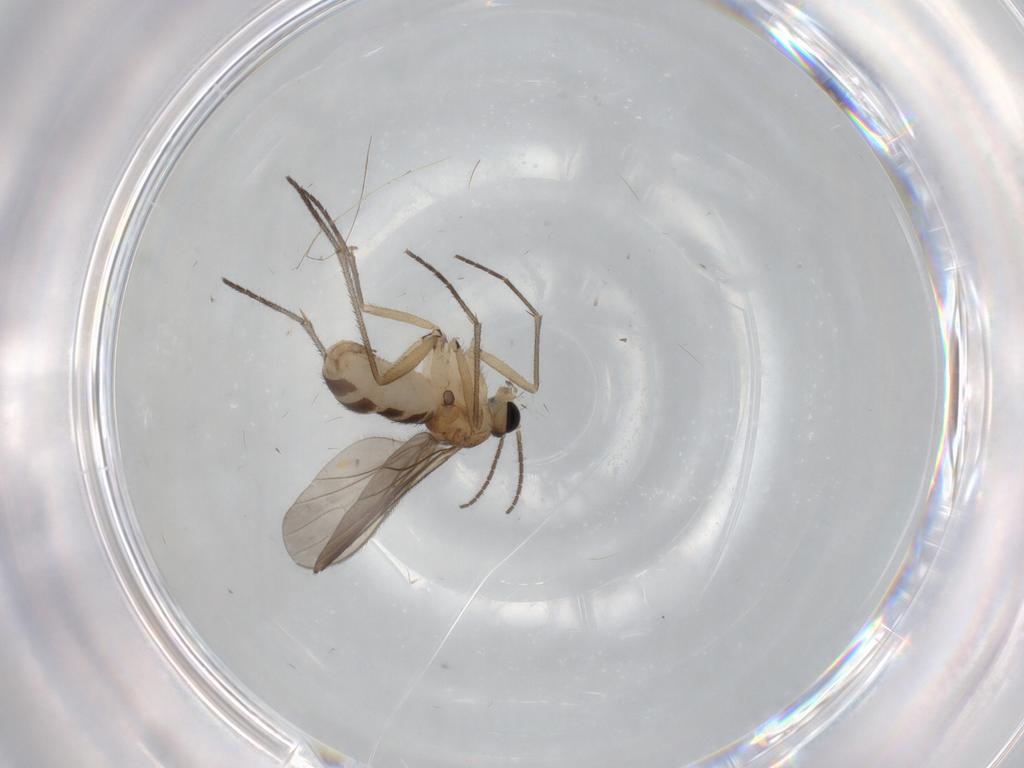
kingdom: Animalia
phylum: Arthropoda
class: Insecta
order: Diptera
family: Sciaridae
